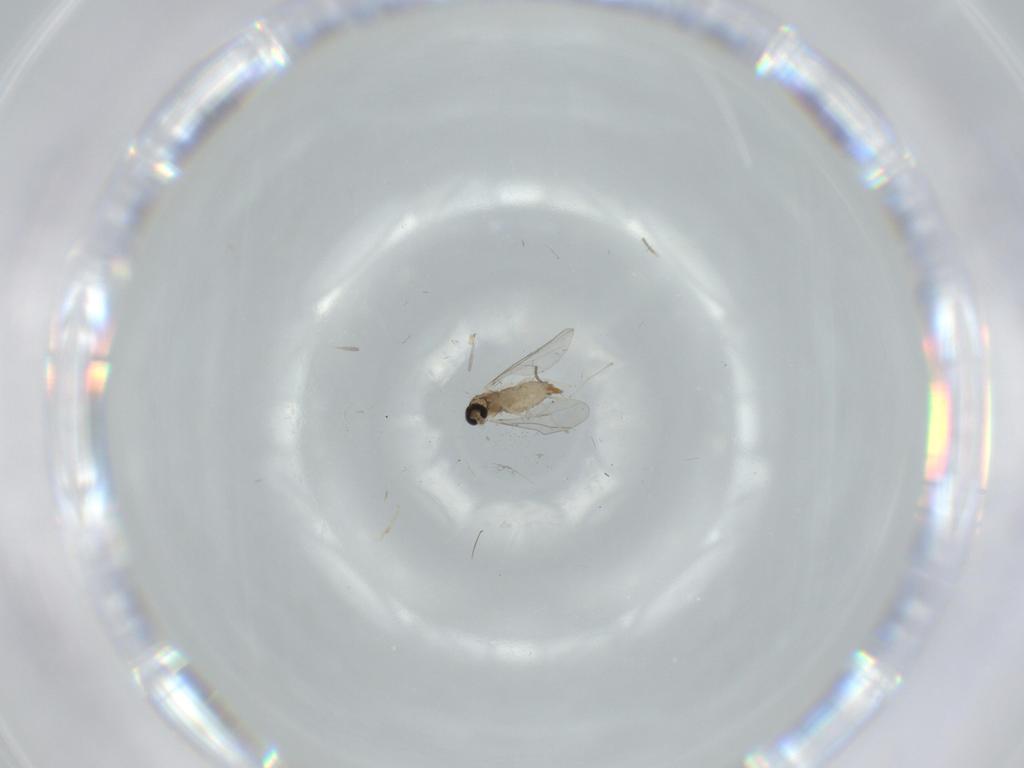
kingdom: Animalia
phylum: Arthropoda
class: Insecta
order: Diptera
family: Cecidomyiidae
